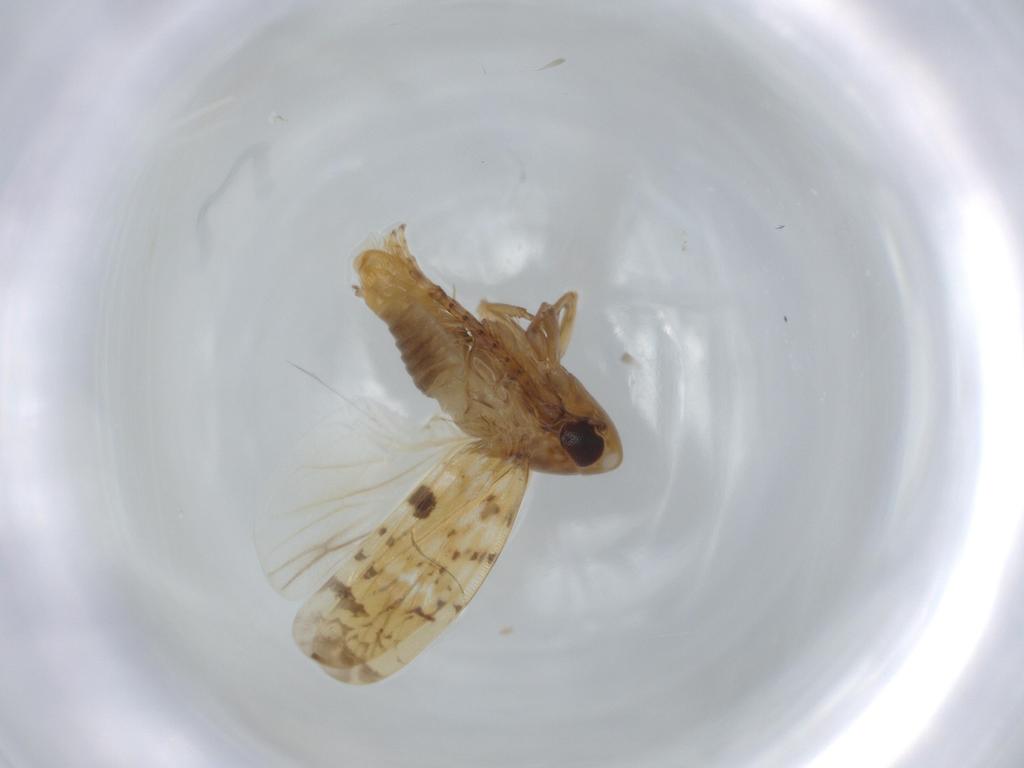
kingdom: Animalia
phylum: Arthropoda
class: Insecta
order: Hemiptera
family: Cicadellidae
